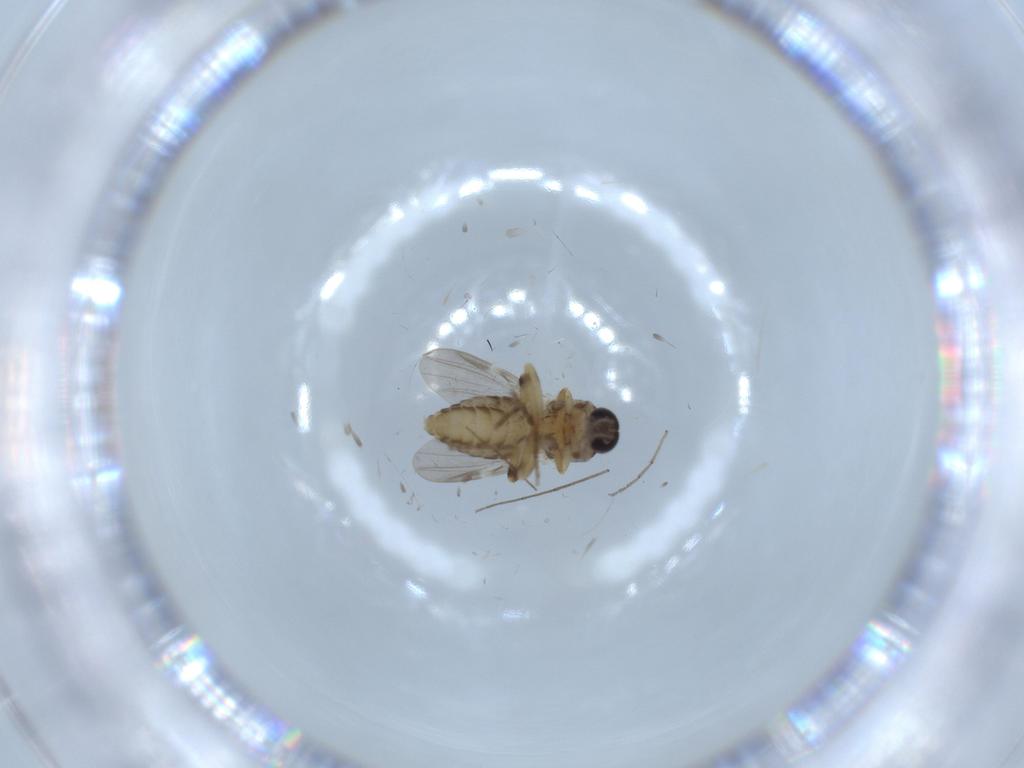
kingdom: Animalia
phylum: Arthropoda
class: Insecta
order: Diptera
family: Ceratopogonidae
